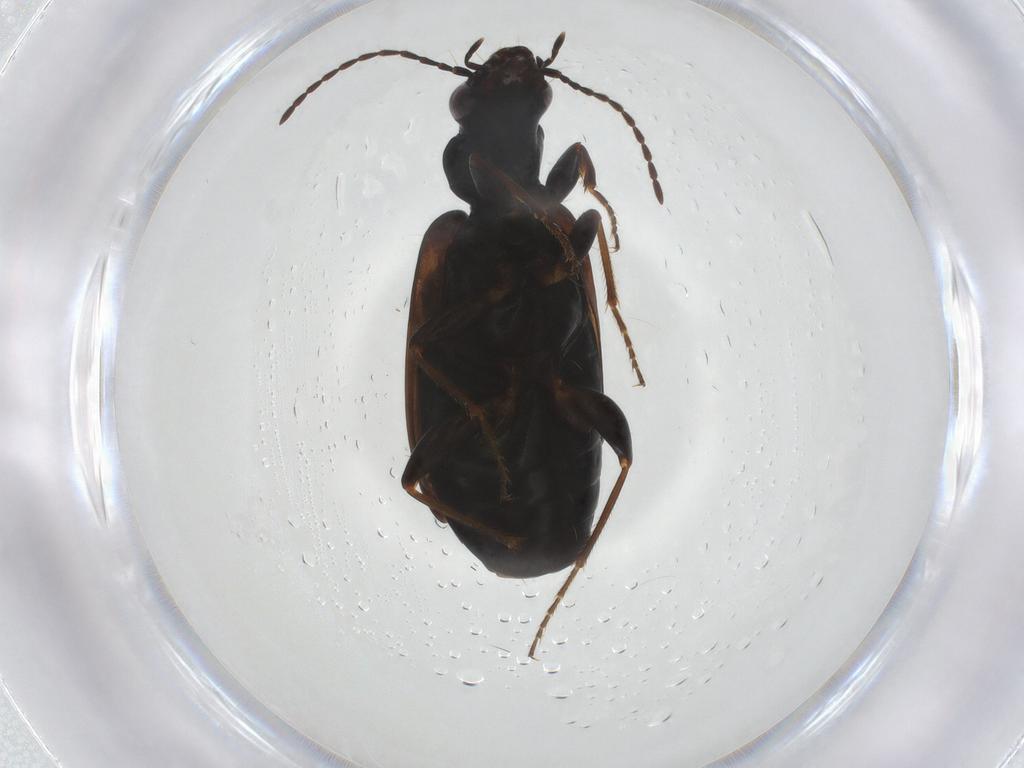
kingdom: Animalia
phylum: Arthropoda
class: Insecta
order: Coleoptera
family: Carabidae
